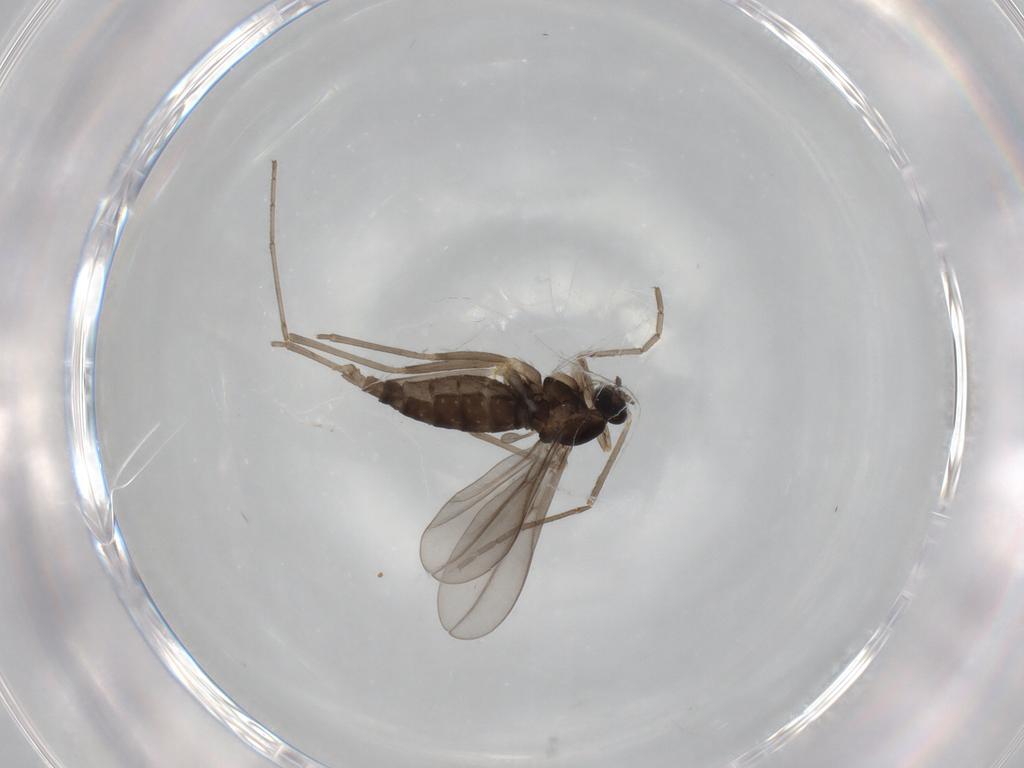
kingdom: Animalia
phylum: Arthropoda
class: Insecta
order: Diptera
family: Cecidomyiidae
